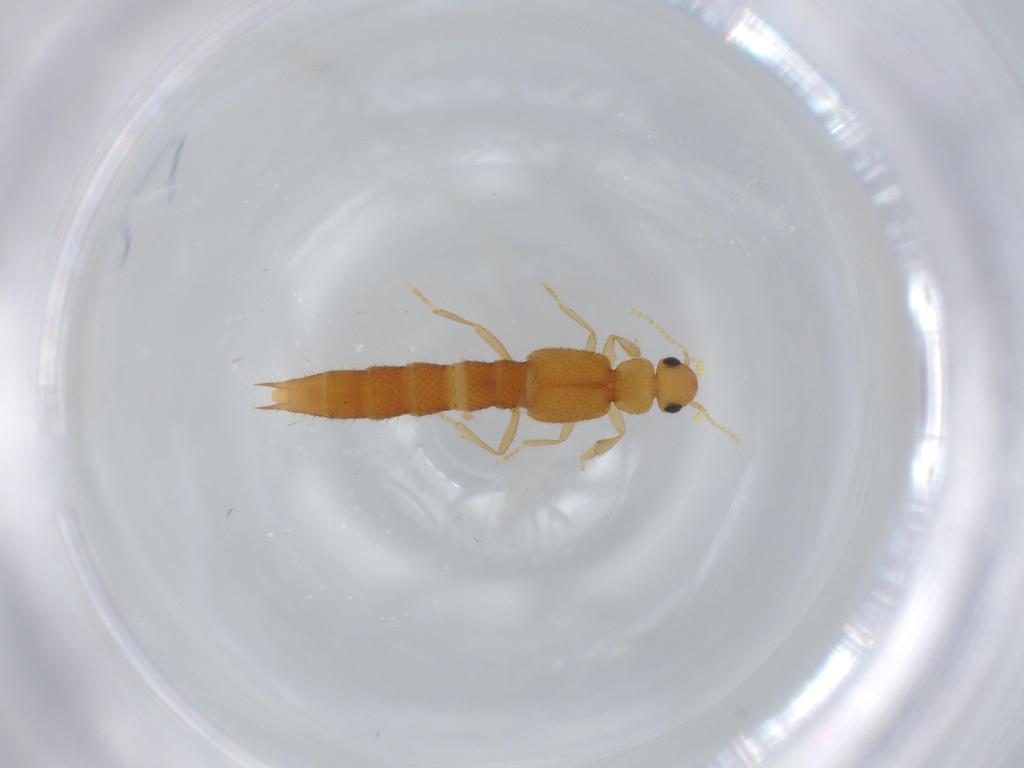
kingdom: Animalia
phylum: Arthropoda
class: Insecta
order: Coleoptera
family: Staphylinidae
